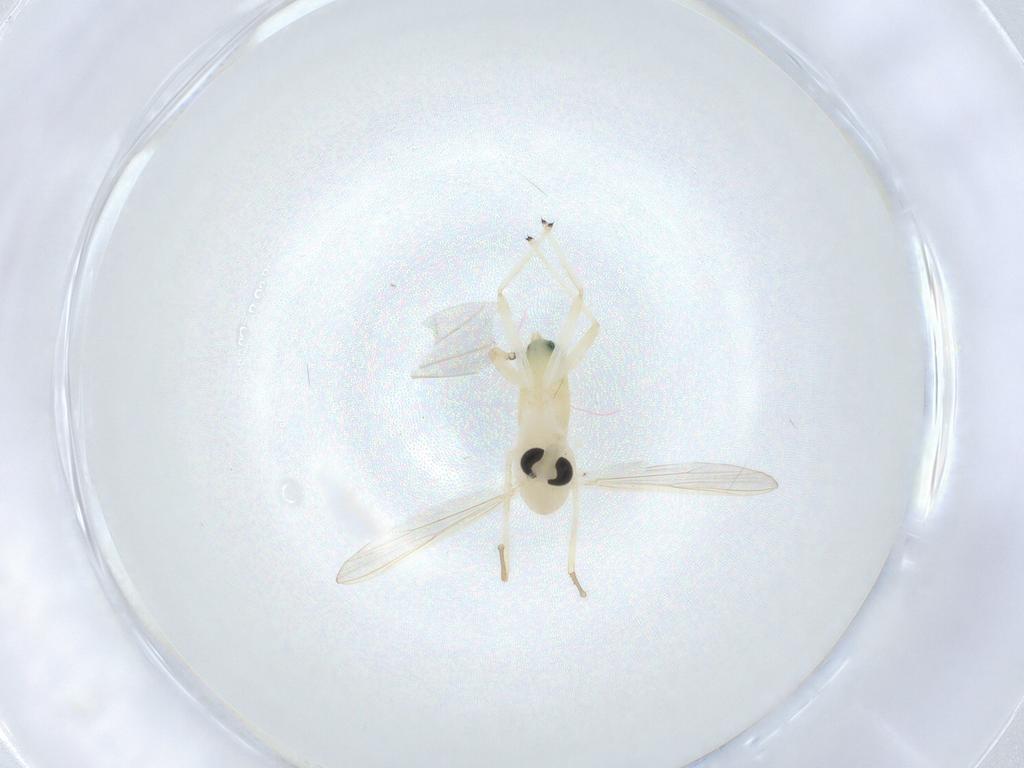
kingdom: Animalia
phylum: Arthropoda
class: Insecta
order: Diptera
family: Chironomidae
